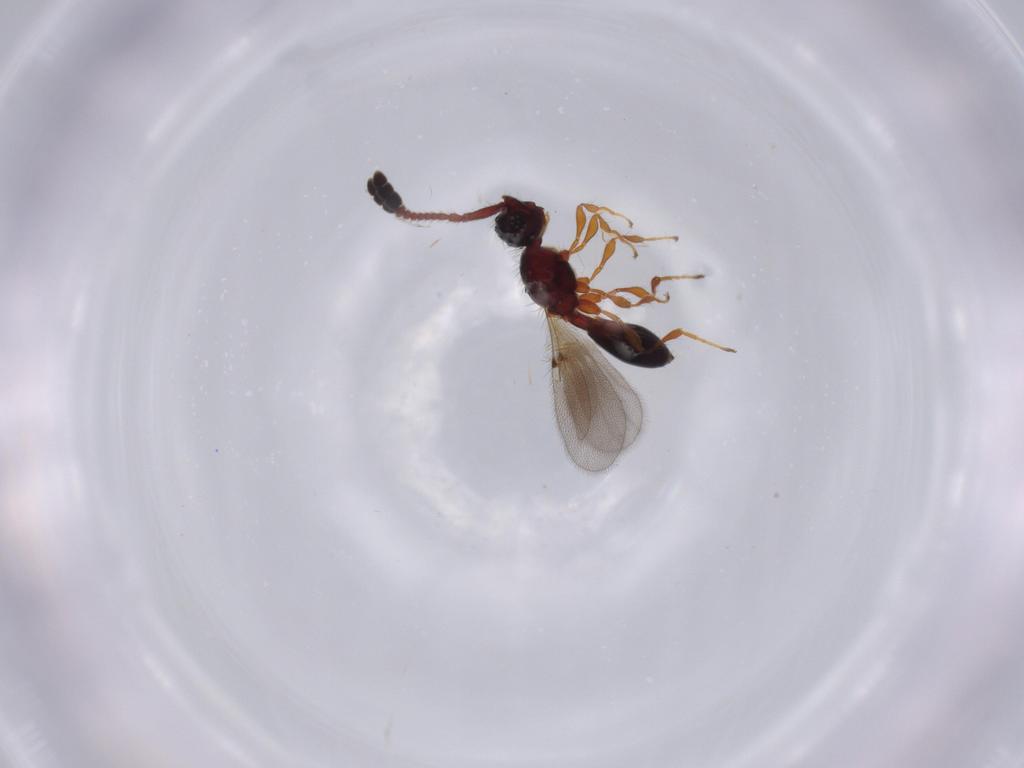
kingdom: Animalia
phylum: Arthropoda
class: Insecta
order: Hymenoptera
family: Diapriidae
